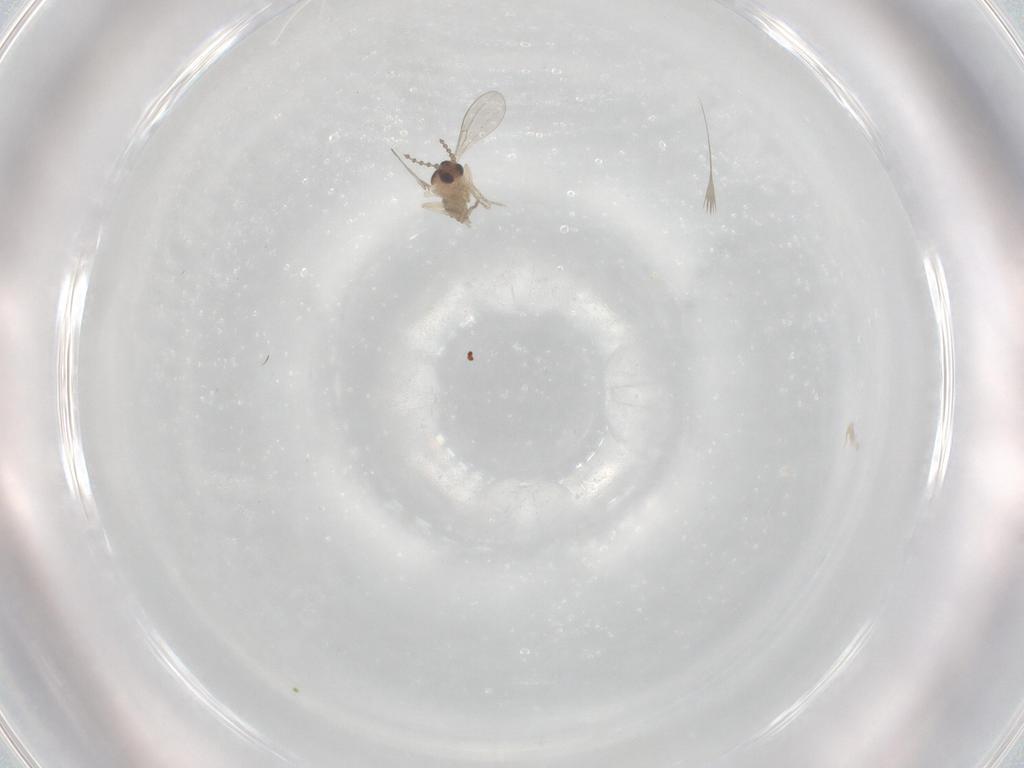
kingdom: Animalia
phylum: Arthropoda
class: Insecta
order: Diptera
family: Cecidomyiidae
